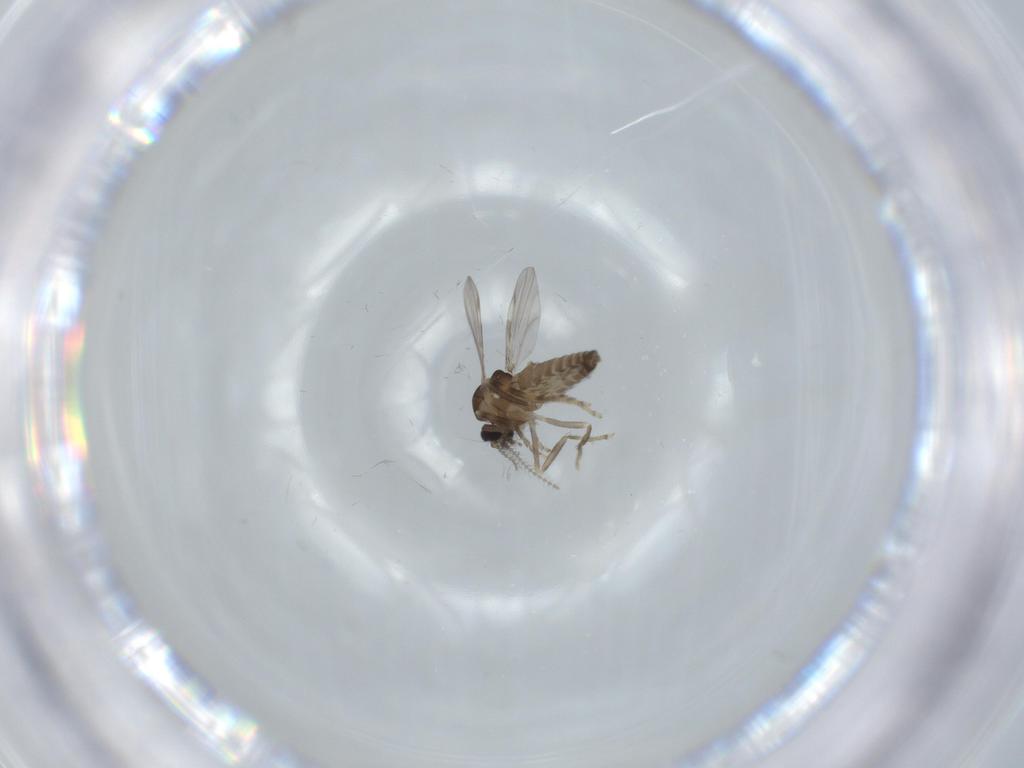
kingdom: Animalia
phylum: Arthropoda
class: Insecta
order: Diptera
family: Chironomidae
